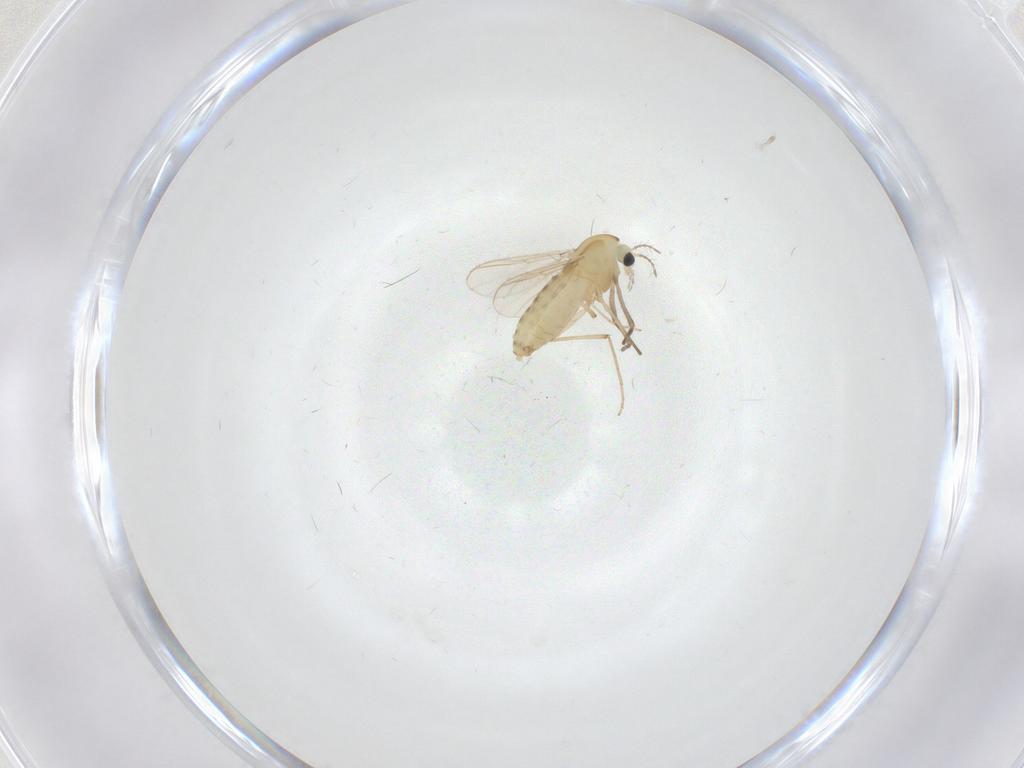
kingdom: Animalia
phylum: Arthropoda
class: Insecta
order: Diptera
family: Chironomidae
